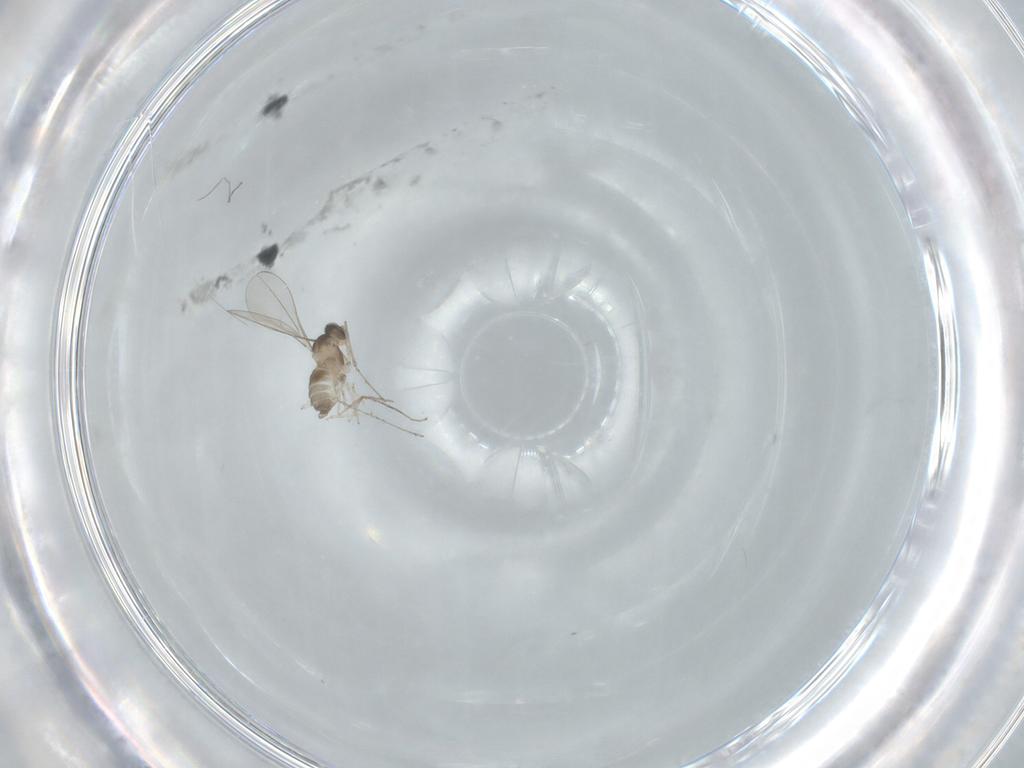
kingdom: Animalia
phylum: Arthropoda
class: Insecta
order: Diptera
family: Cecidomyiidae
